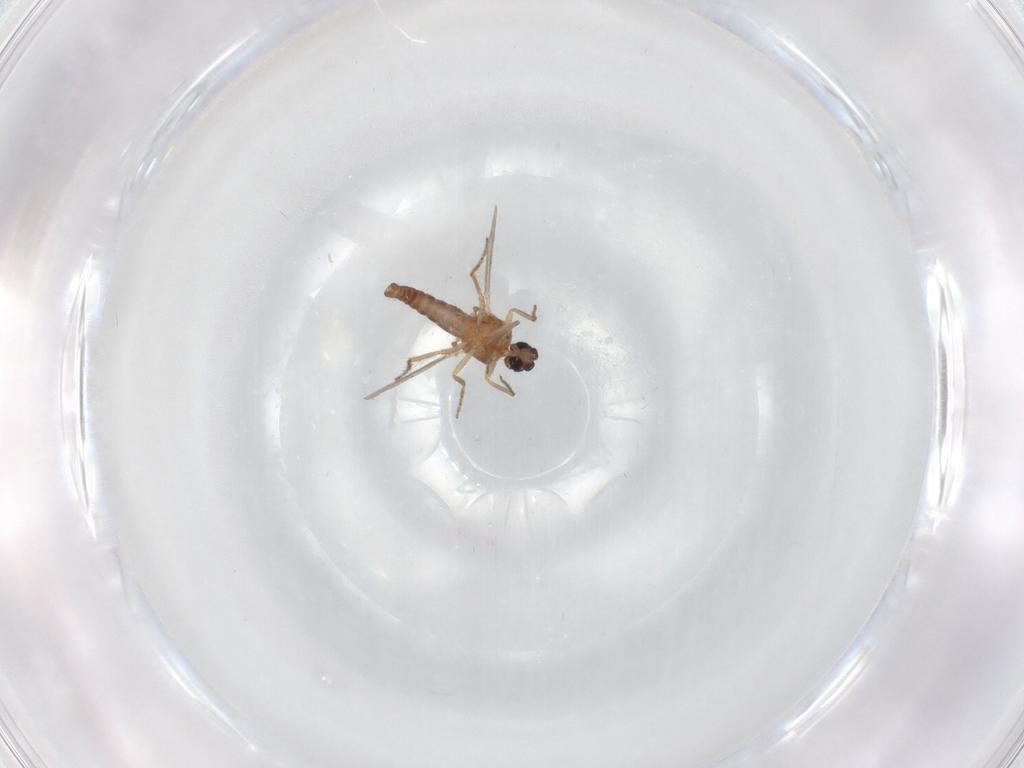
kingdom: Animalia
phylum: Arthropoda
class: Insecta
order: Diptera
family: Ceratopogonidae
